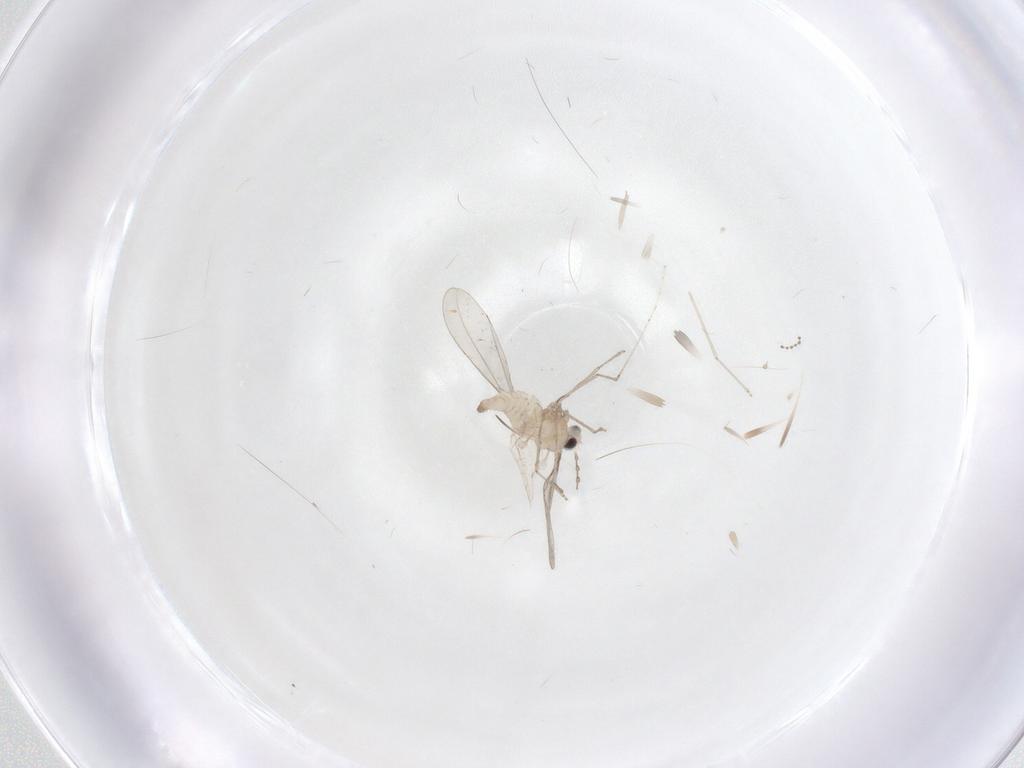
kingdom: Animalia
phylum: Arthropoda
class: Insecta
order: Diptera
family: Cecidomyiidae
